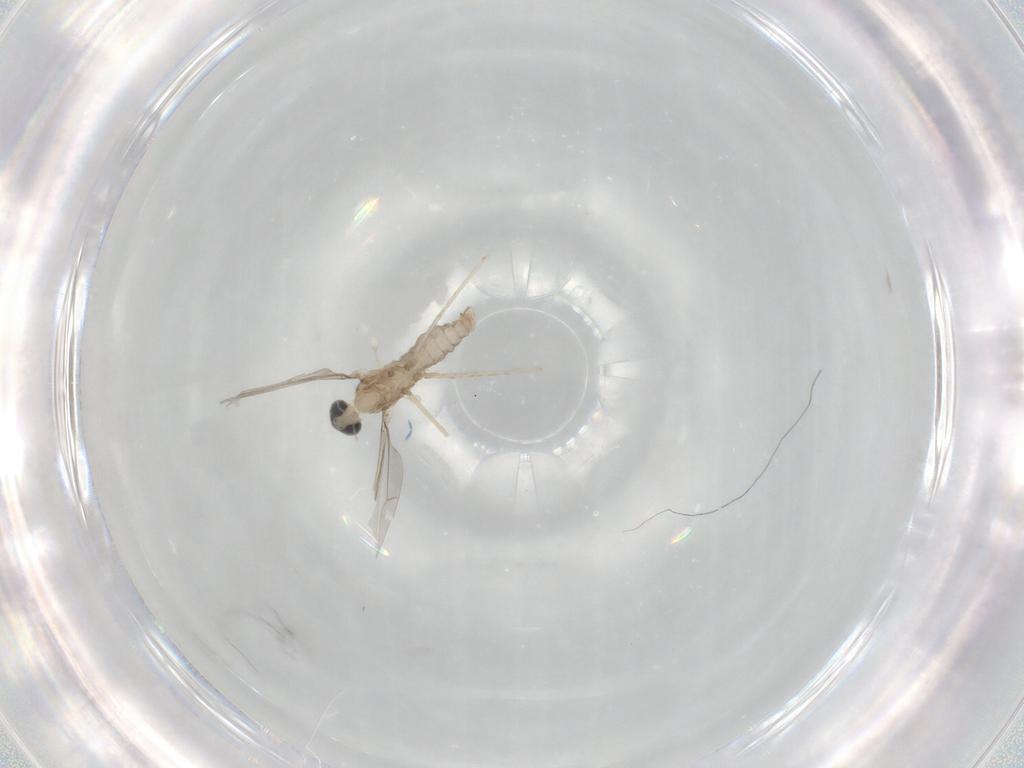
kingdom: Animalia
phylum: Arthropoda
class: Insecta
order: Diptera
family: Cecidomyiidae
